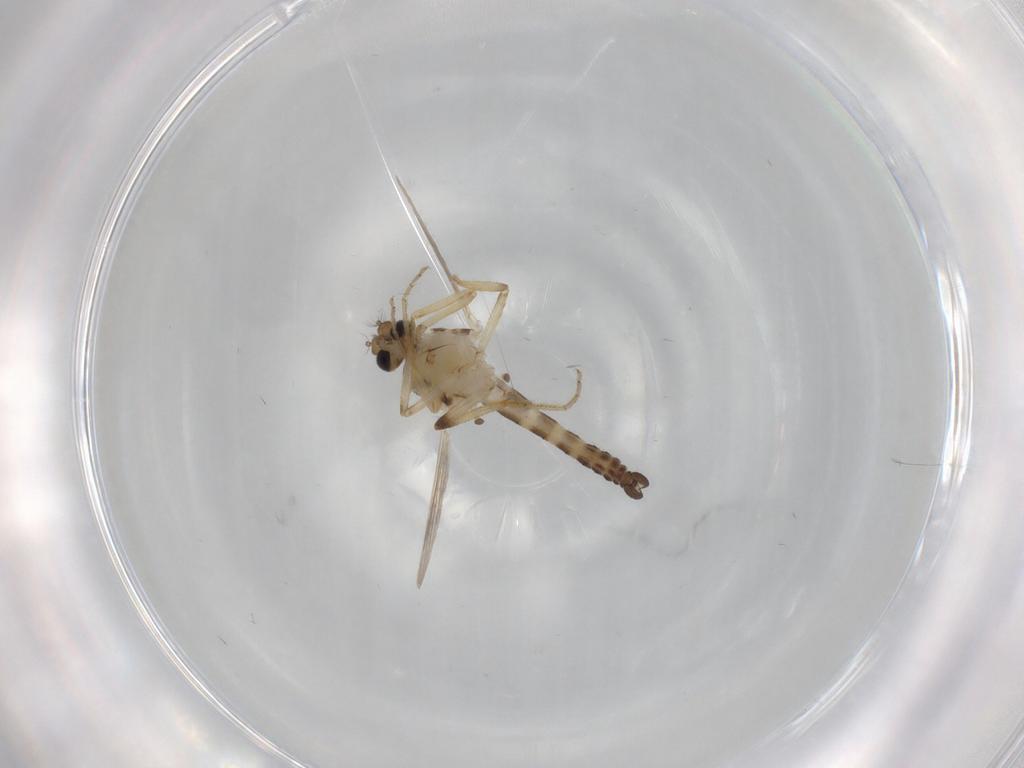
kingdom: Animalia
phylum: Arthropoda
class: Insecta
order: Diptera
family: Ceratopogonidae
